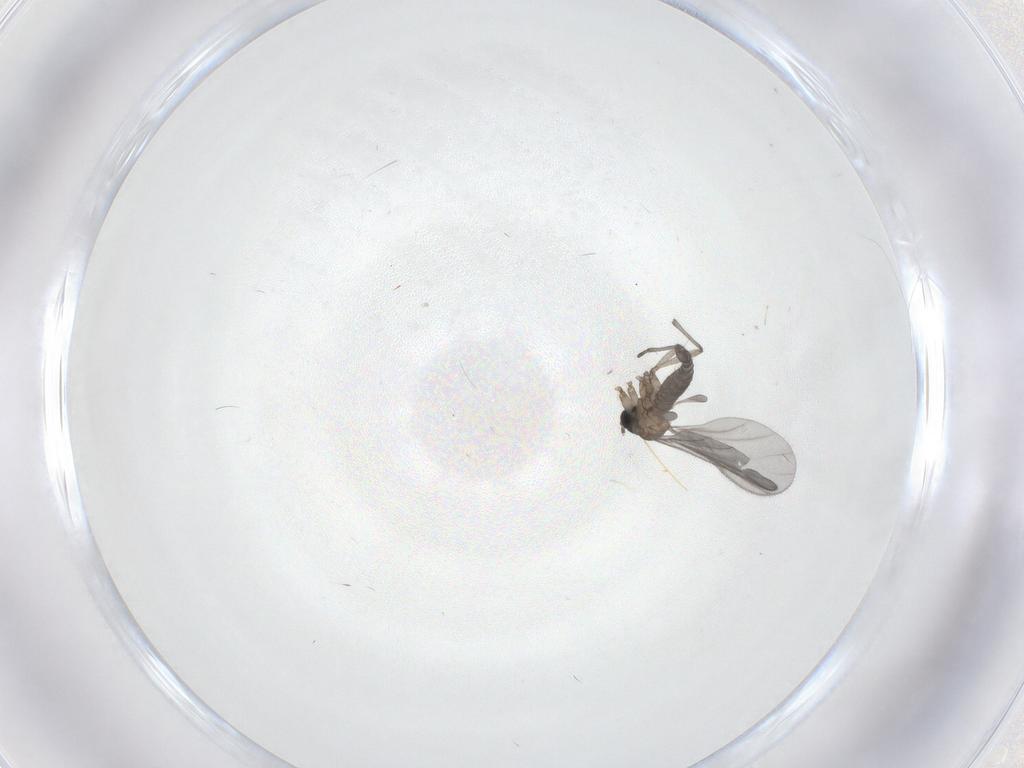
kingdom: Animalia
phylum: Arthropoda
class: Insecta
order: Diptera
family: Sciaridae
